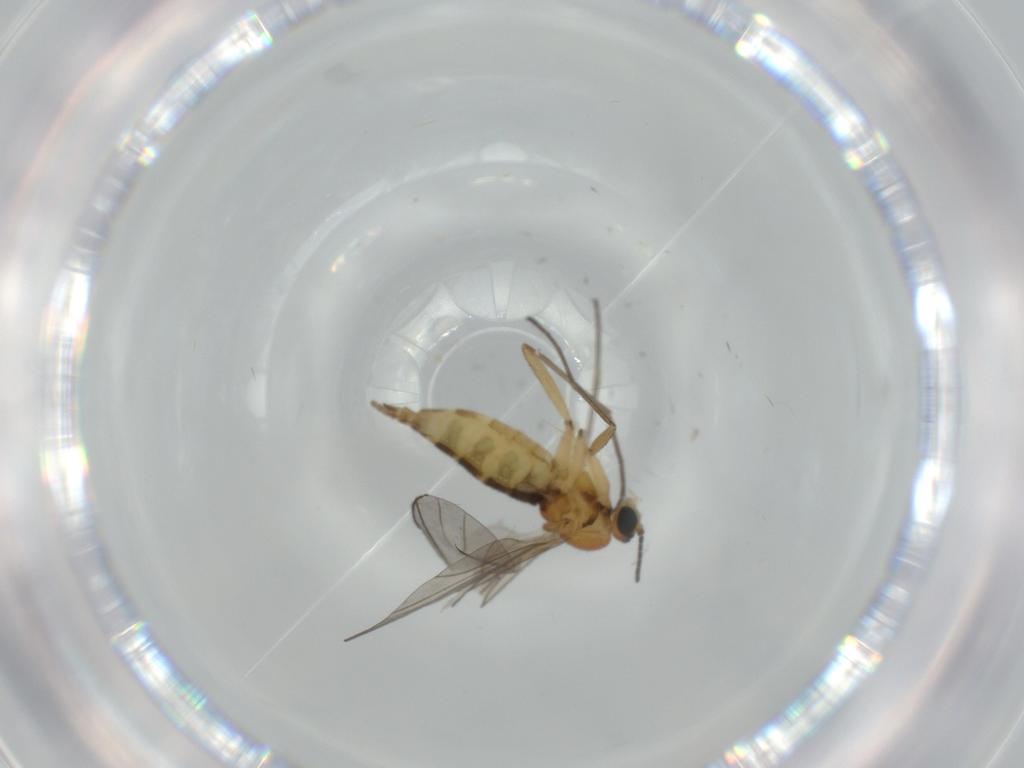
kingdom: Animalia
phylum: Arthropoda
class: Insecta
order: Diptera
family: Sciaridae
